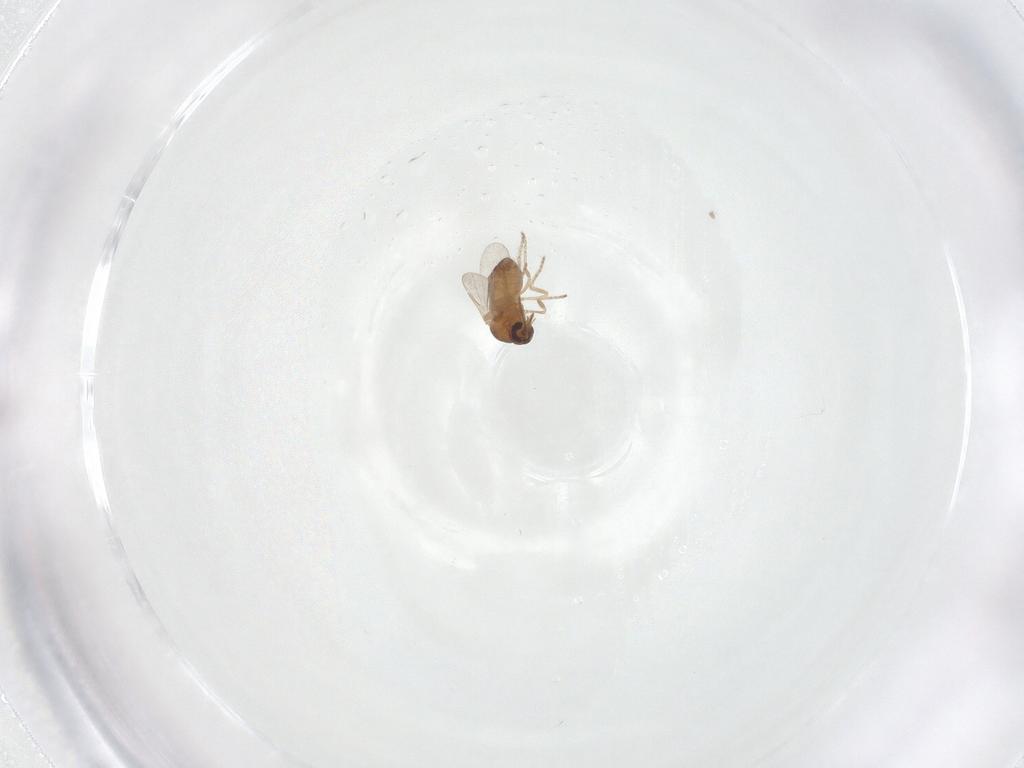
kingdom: Animalia
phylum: Arthropoda
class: Insecta
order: Diptera
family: Ceratopogonidae
